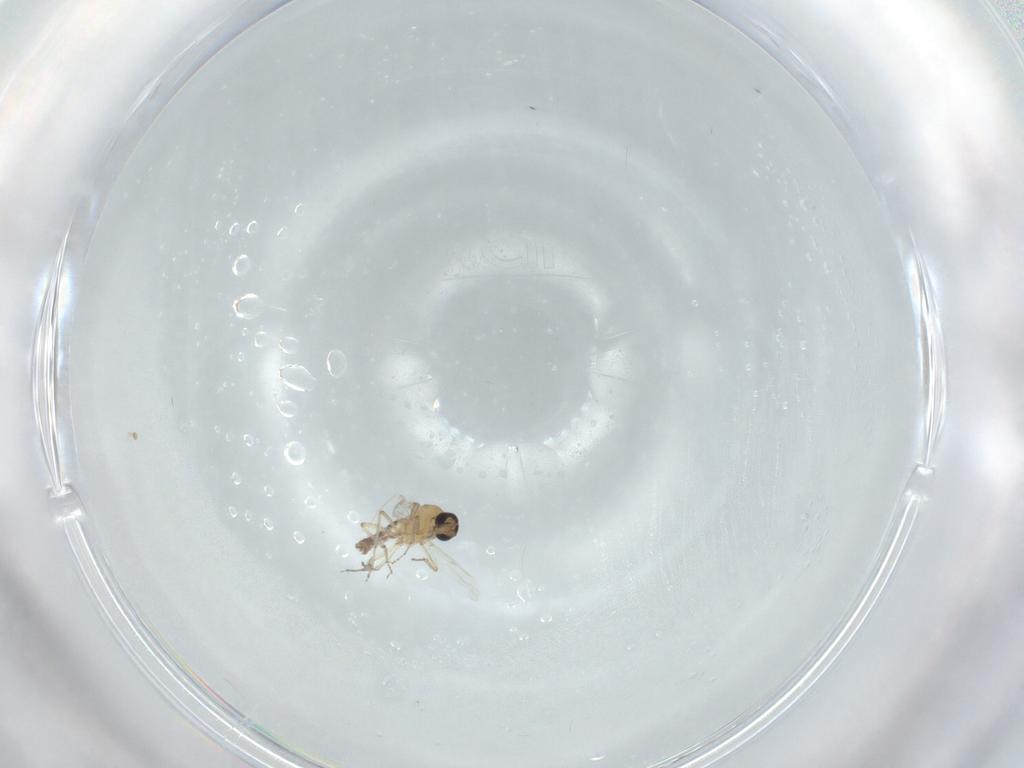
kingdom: Animalia
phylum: Arthropoda
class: Insecta
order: Diptera
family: Ceratopogonidae
